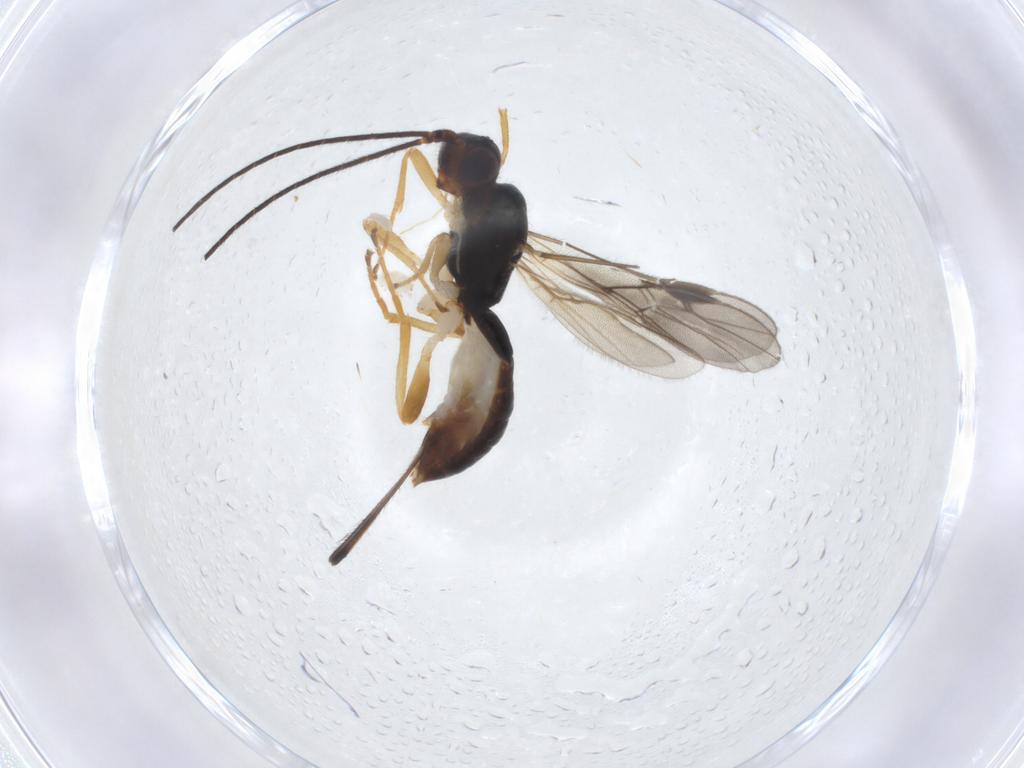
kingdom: Animalia
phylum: Arthropoda
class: Insecta
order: Hymenoptera
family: Braconidae
